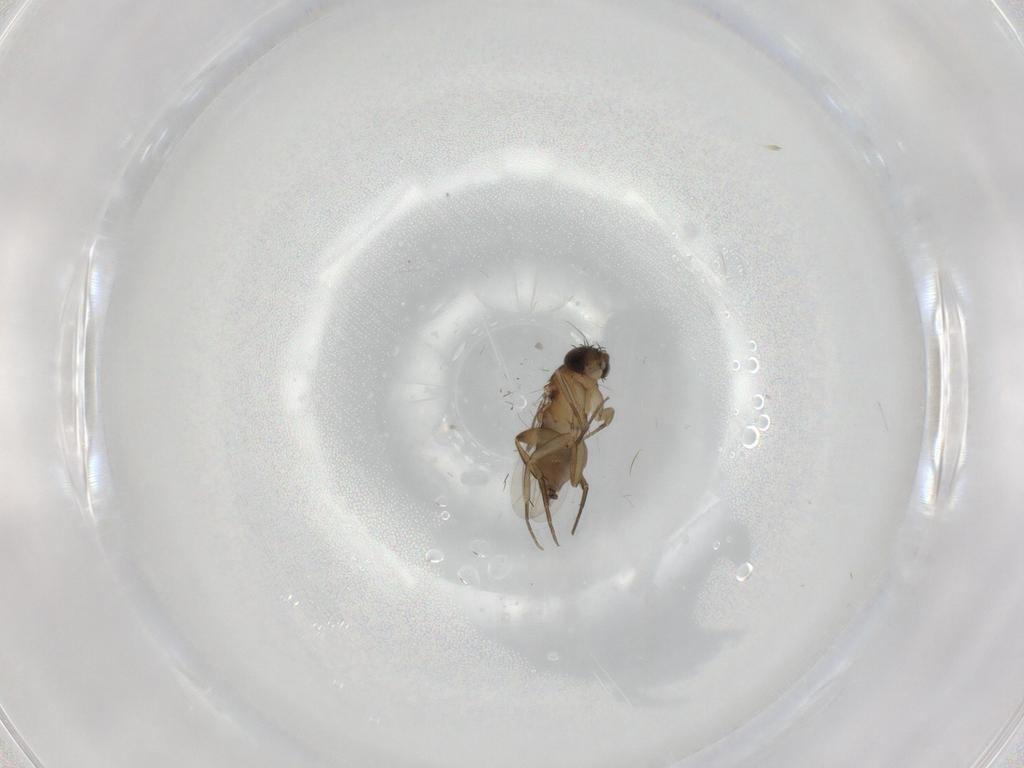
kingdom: Animalia
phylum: Arthropoda
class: Insecta
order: Diptera
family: Phoridae
